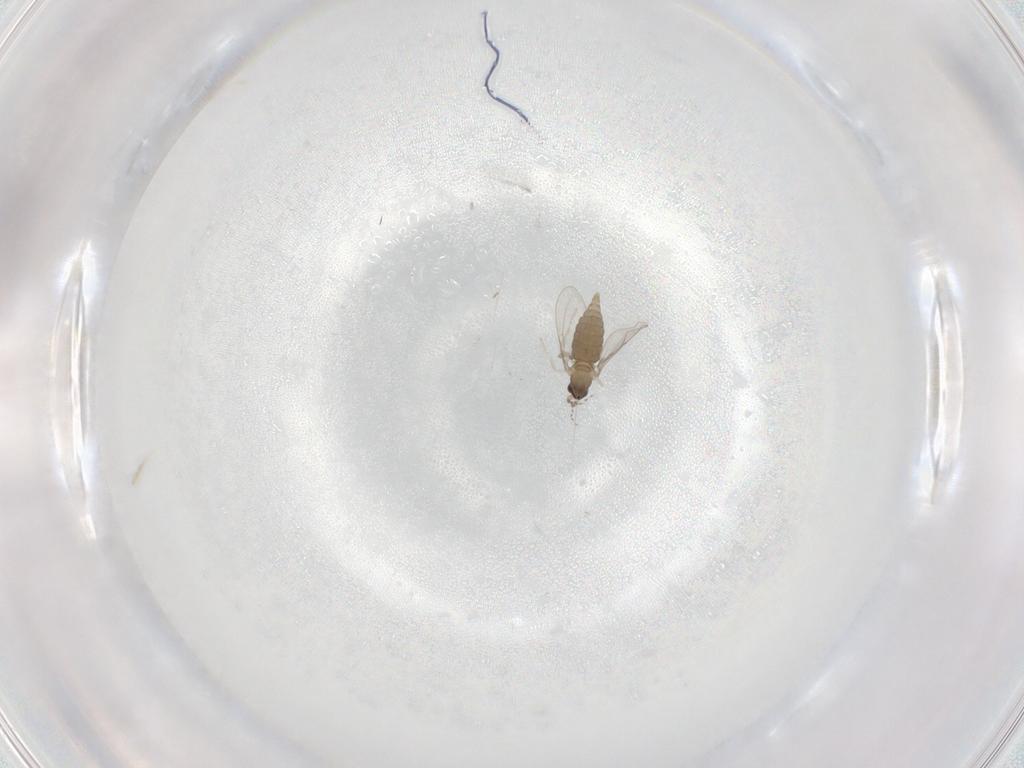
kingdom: Animalia
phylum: Arthropoda
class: Insecta
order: Diptera
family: Cecidomyiidae
